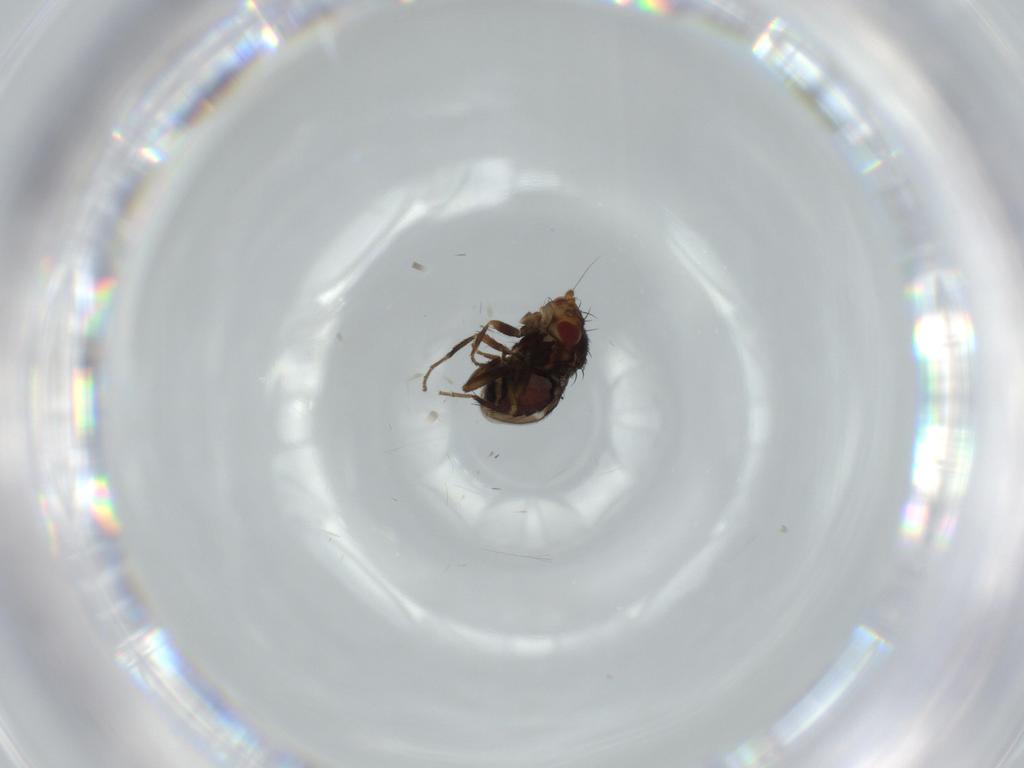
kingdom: Animalia
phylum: Arthropoda
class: Insecta
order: Diptera
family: Sphaeroceridae
